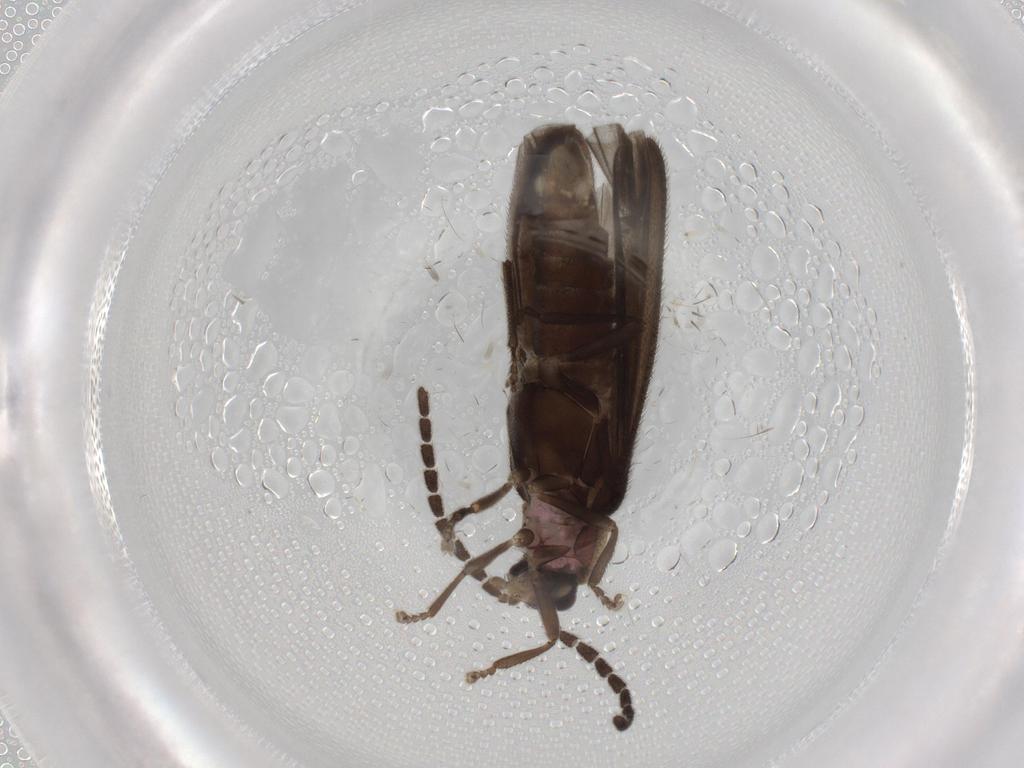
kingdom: Animalia
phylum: Arthropoda
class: Insecta
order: Coleoptera
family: Lampyridae
